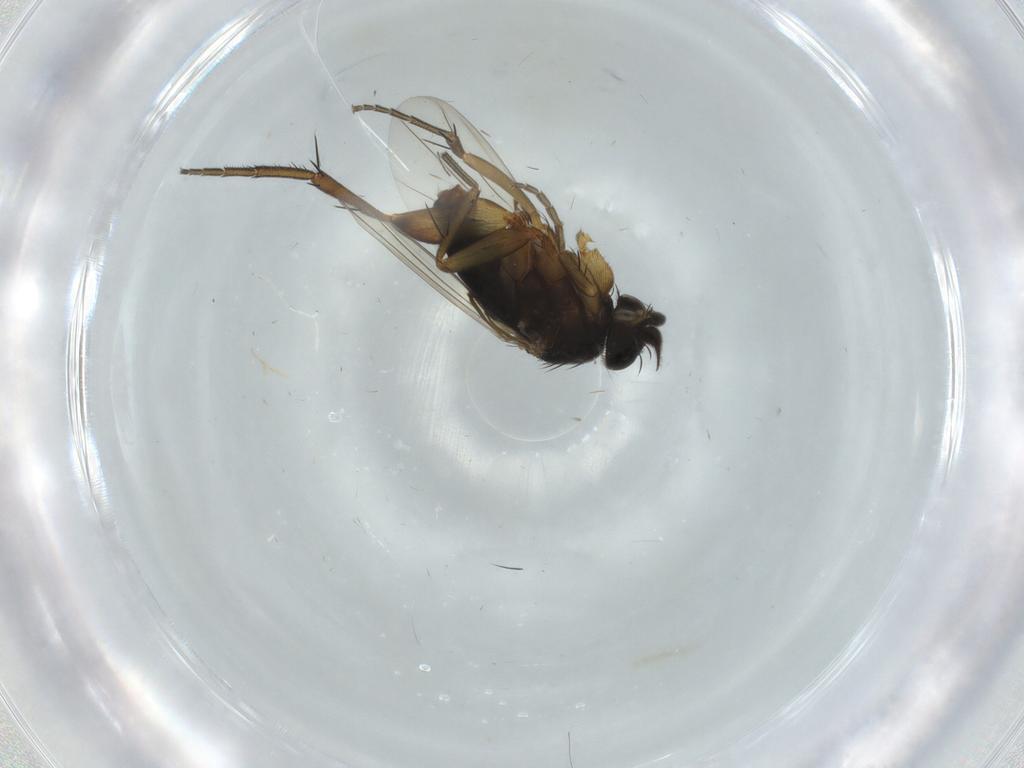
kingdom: Animalia
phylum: Arthropoda
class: Insecta
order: Diptera
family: Phoridae
